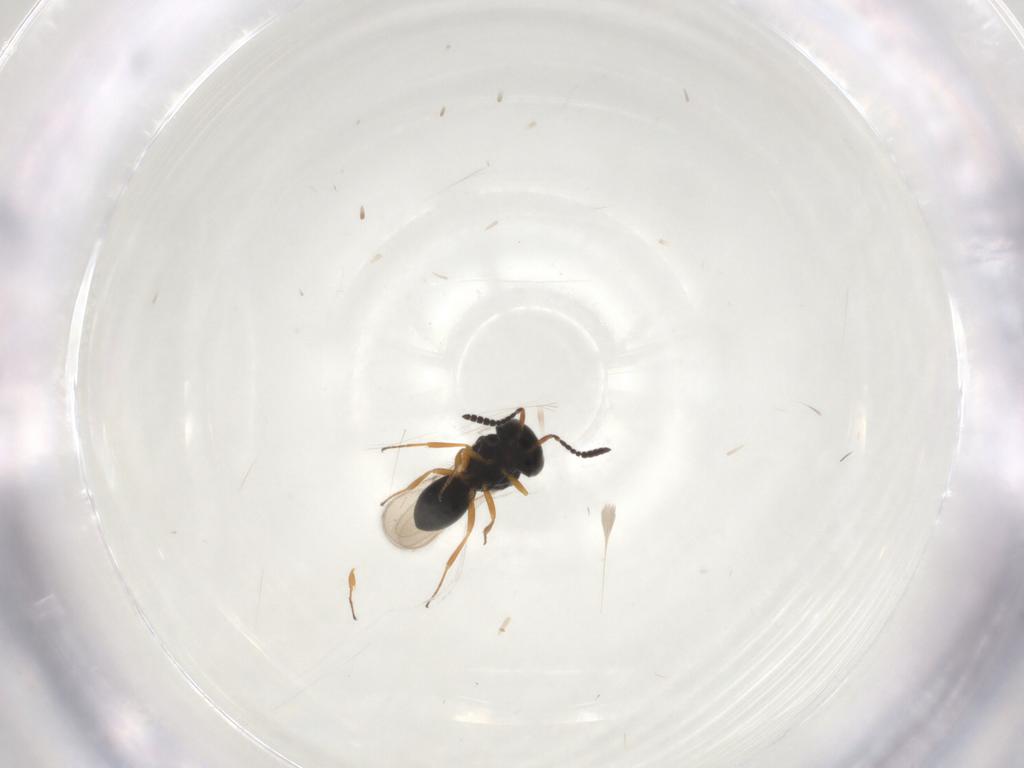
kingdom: Animalia
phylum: Arthropoda
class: Insecta
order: Hymenoptera
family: Scelionidae
